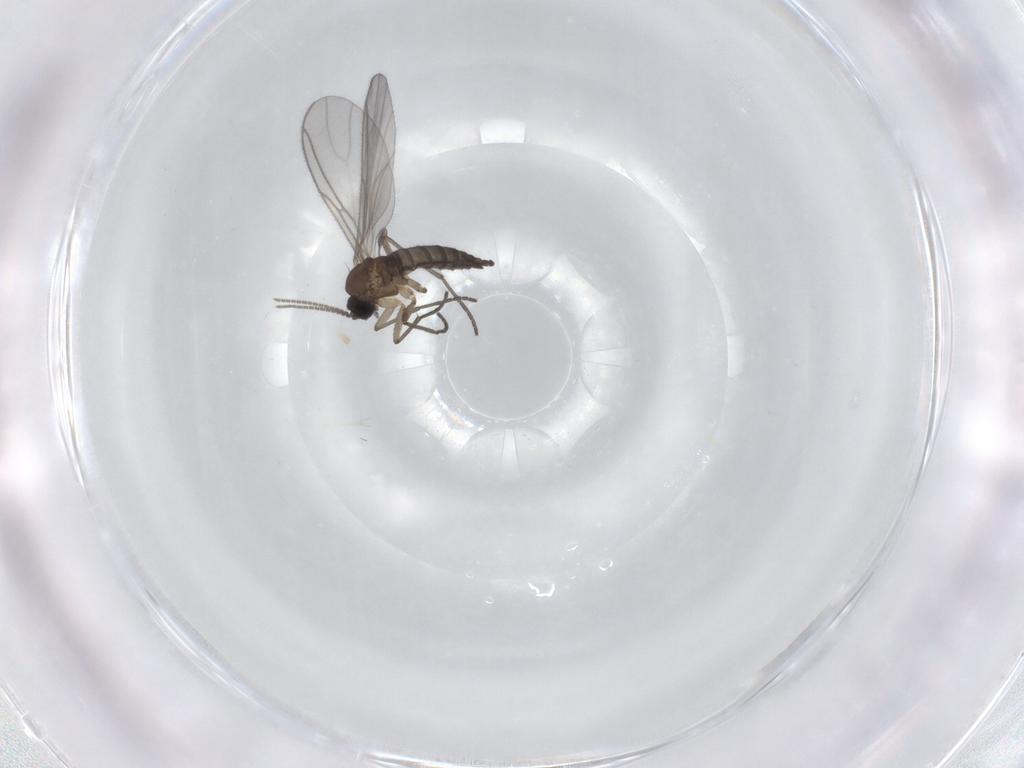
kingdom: Animalia
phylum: Arthropoda
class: Insecta
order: Diptera
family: Sciaridae
